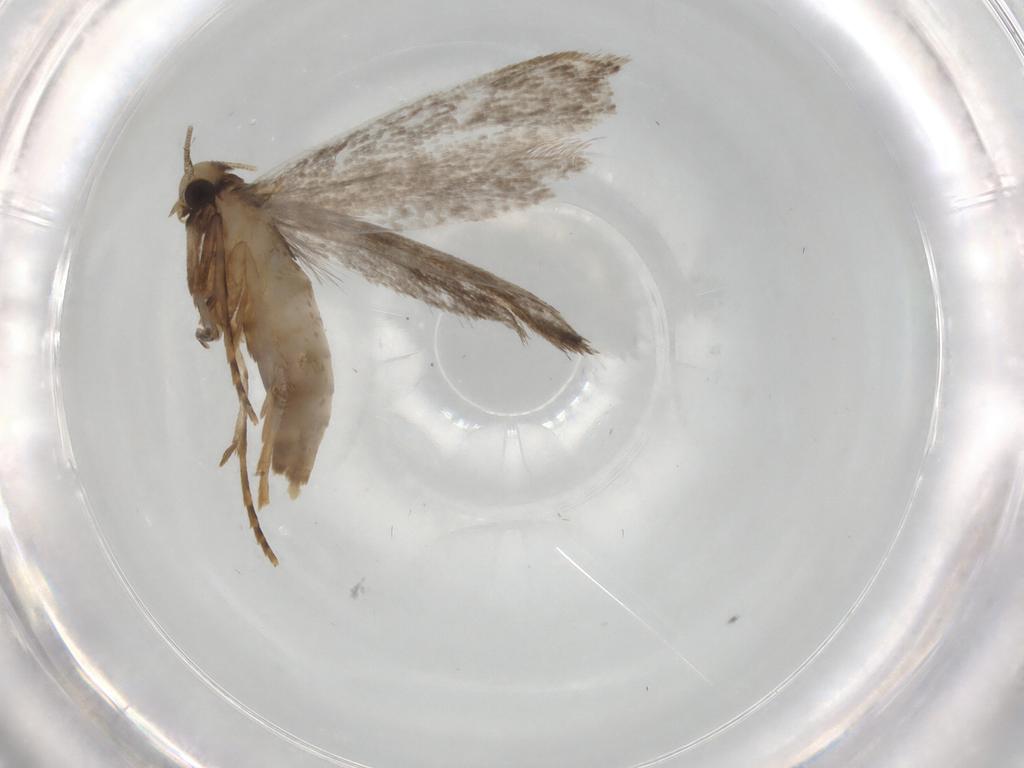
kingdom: Animalia
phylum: Arthropoda
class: Insecta
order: Lepidoptera
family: Tineidae
